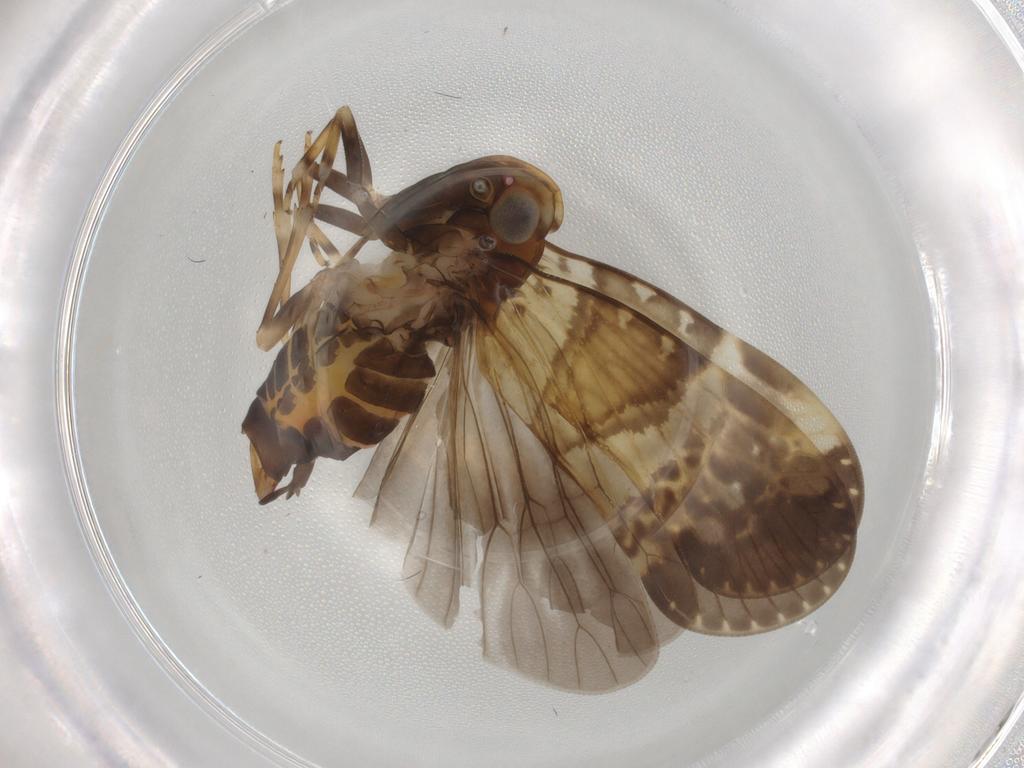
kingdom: Animalia
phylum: Arthropoda
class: Insecta
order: Hemiptera
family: Cixiidae
